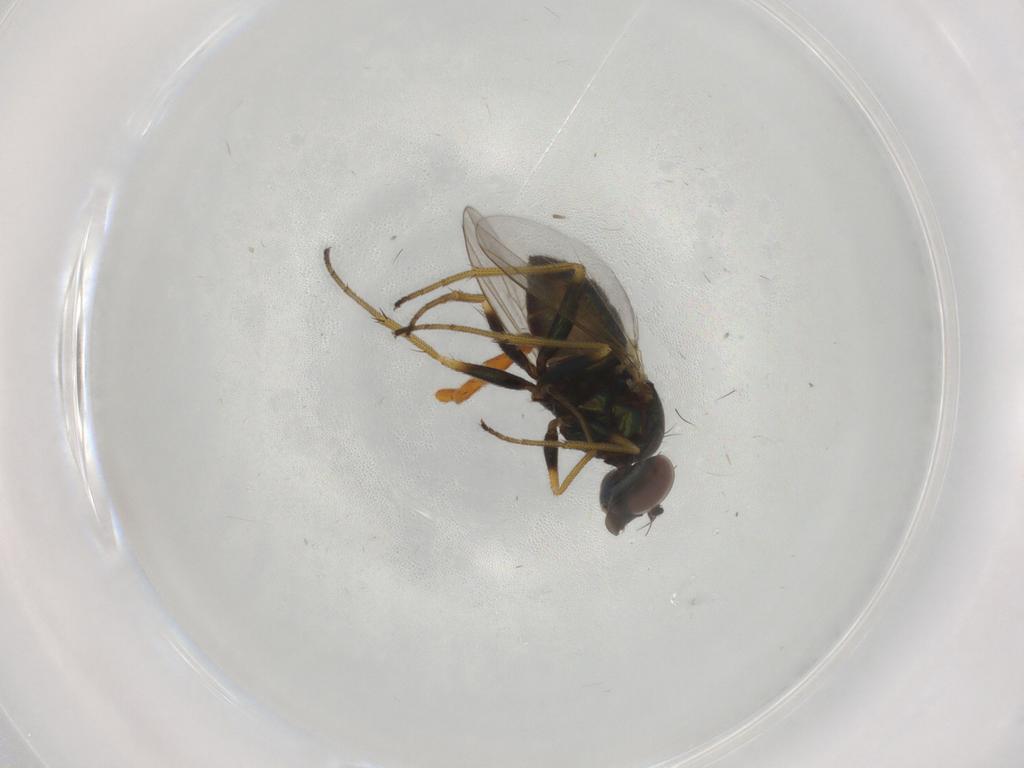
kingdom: Animalia
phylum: Arthropoda
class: Insecta
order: Diptera
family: Dolichopodidae
